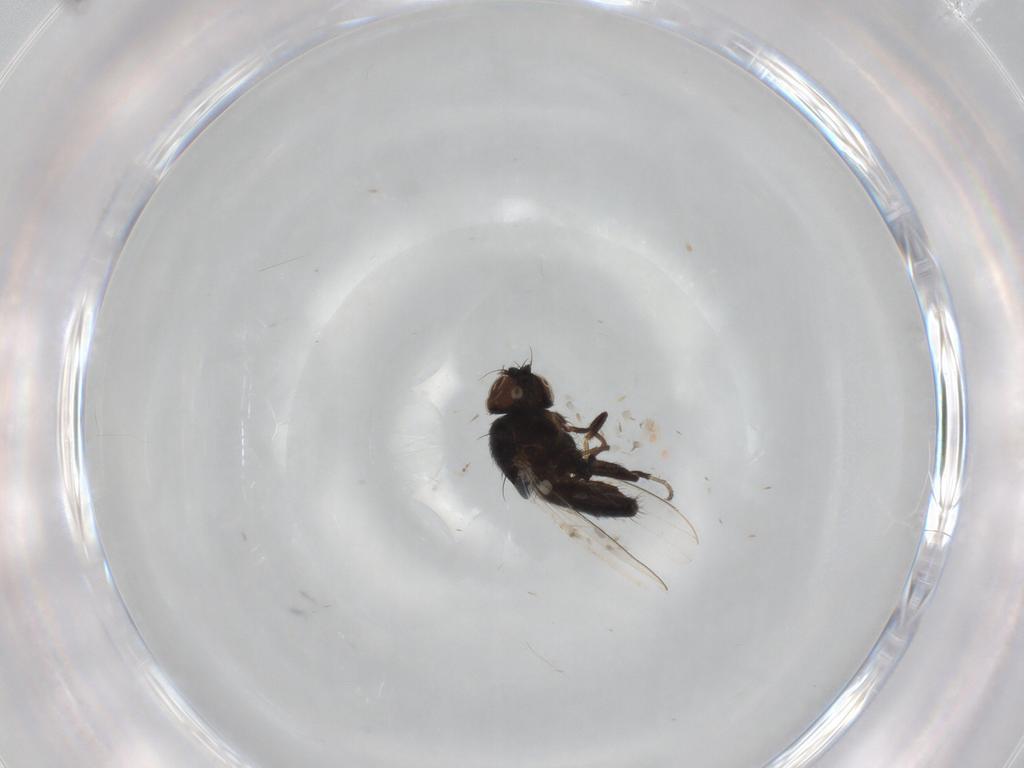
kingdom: Animalia
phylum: Arthropoda
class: Insecta
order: Diptera
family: Milichiidae
